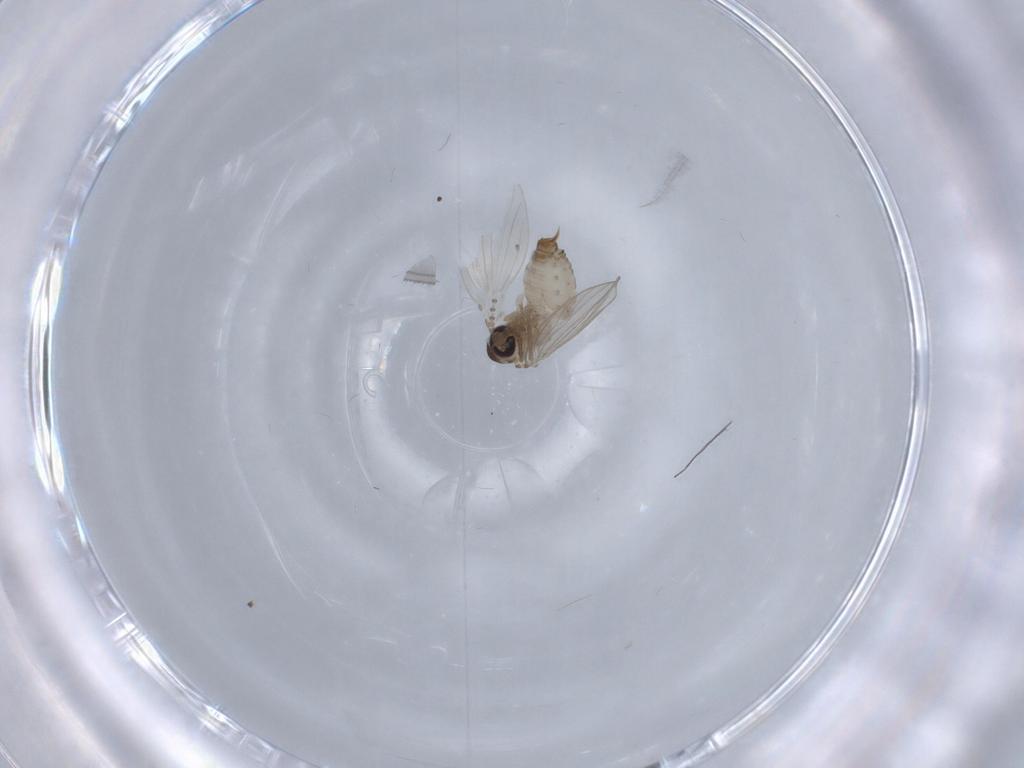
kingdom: Animalia
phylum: Arthropoda
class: Insecta
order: Diptera
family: Psychodidae
